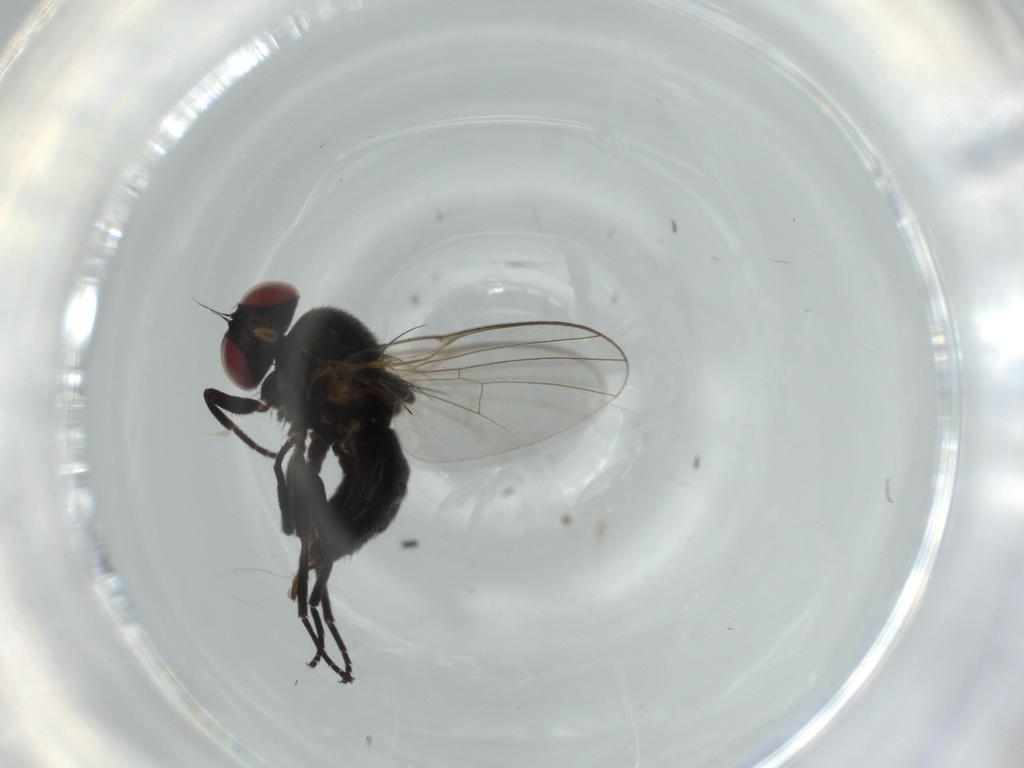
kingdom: Animalia
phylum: Arthropoda
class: Insecta
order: Diptera
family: Agromyzidae
